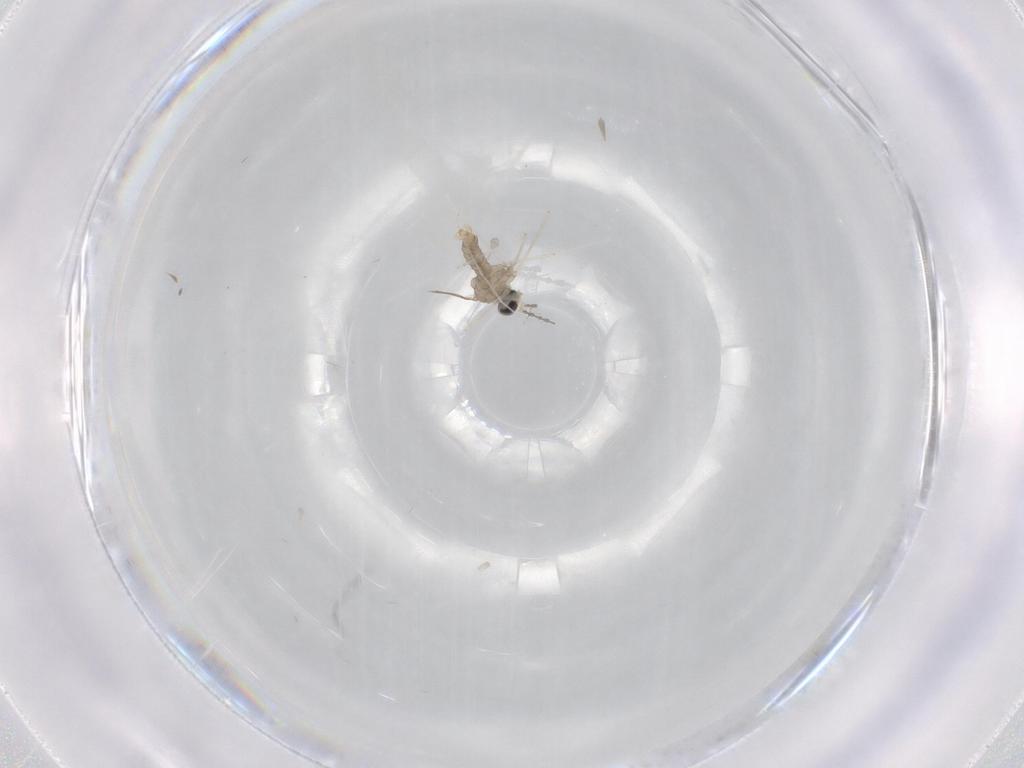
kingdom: Animalia
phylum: Arthropoda
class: Insecta
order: Diptera
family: Cecidomyiidae
